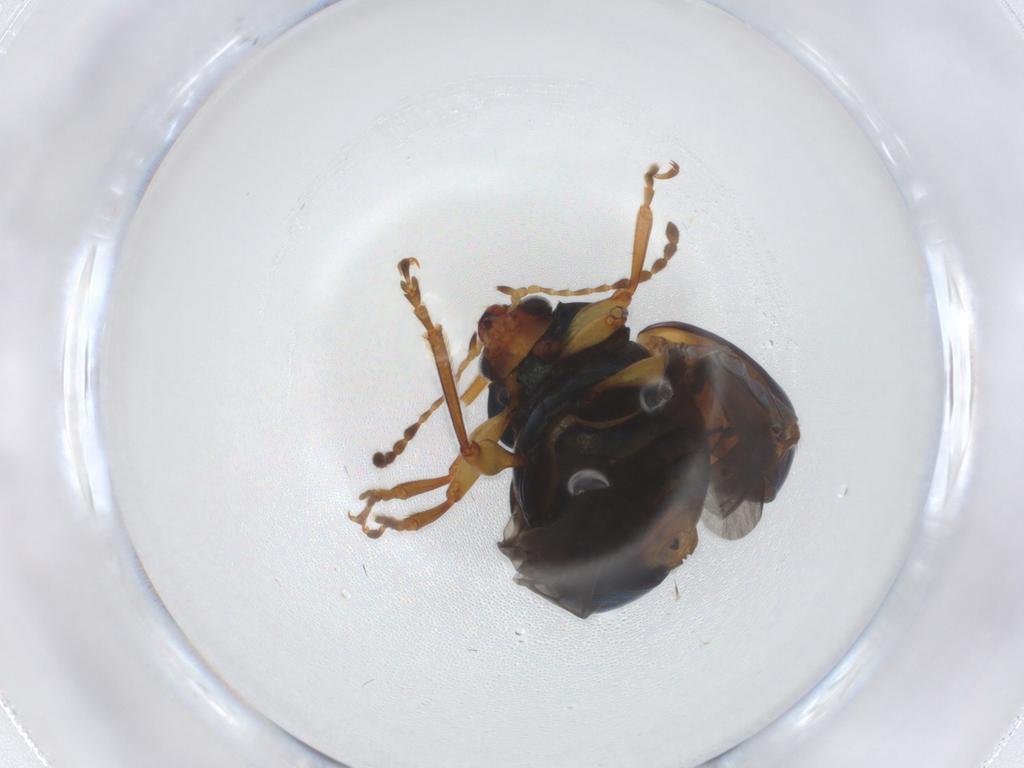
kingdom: Animalia
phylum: Arthropoda
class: Insecta
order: Coleoptera
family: Chrysomelidae
